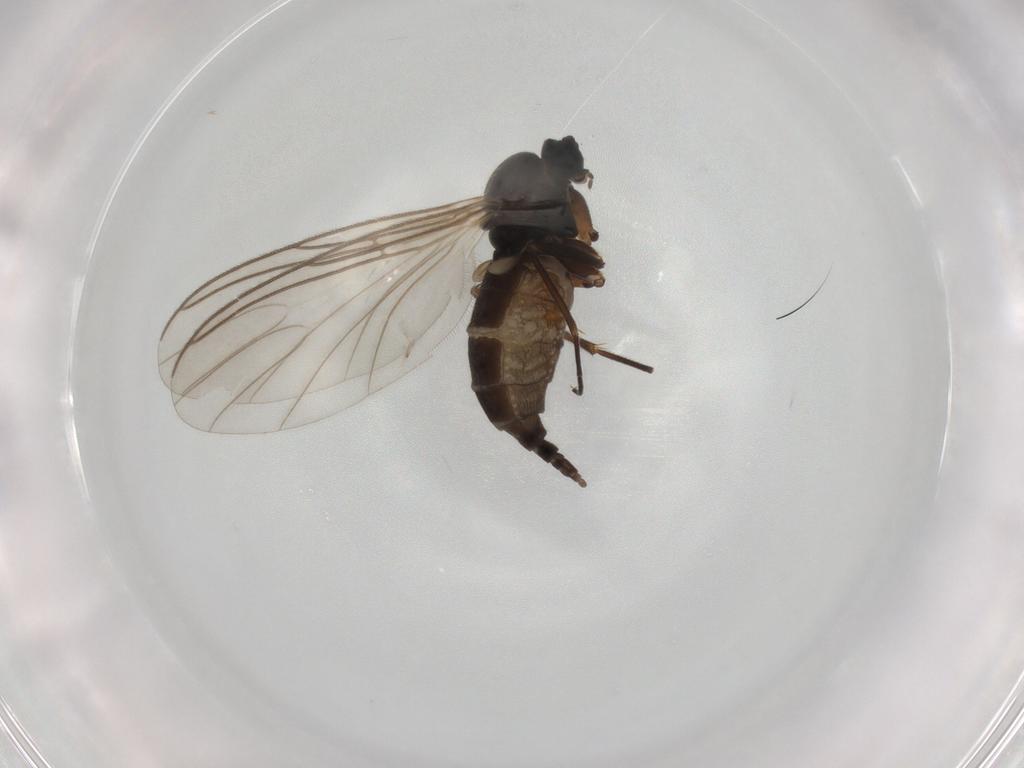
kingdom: Animalia
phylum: Arthropoda
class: Insecta
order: Diptera
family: Sciaridae
